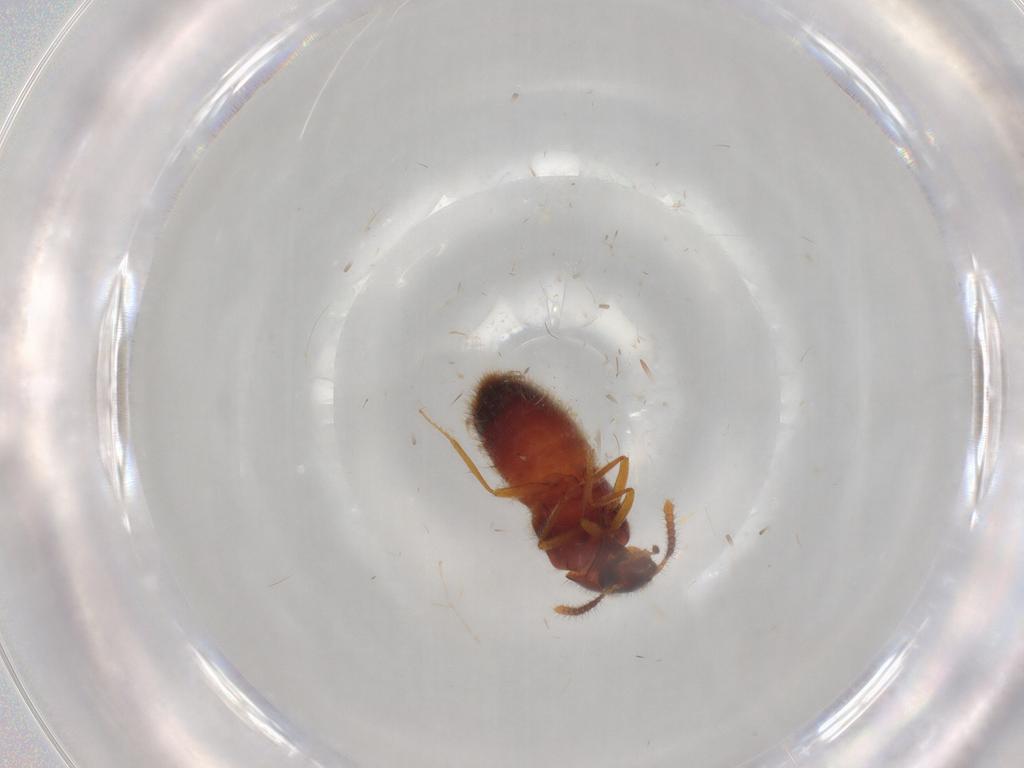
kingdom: Animalia
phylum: Arthropoda
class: Insecta
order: Coleoptera
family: Staphylinidae
